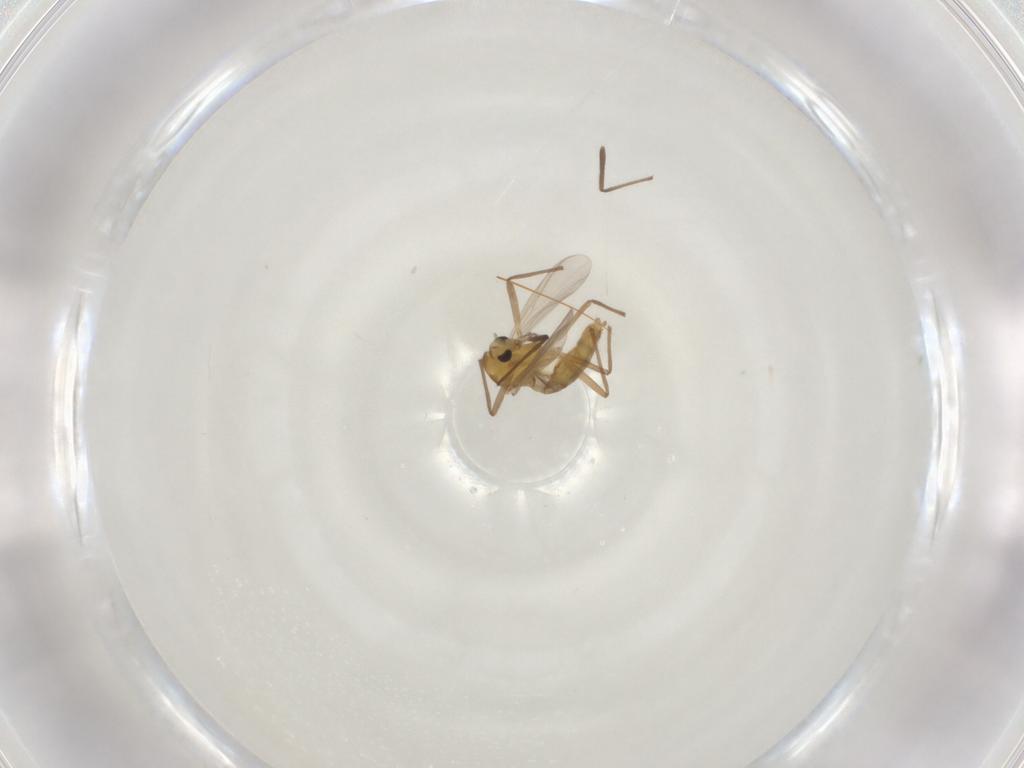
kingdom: Animalia
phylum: Arthropoda
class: Insecta
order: Diptera
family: Chironomidae
